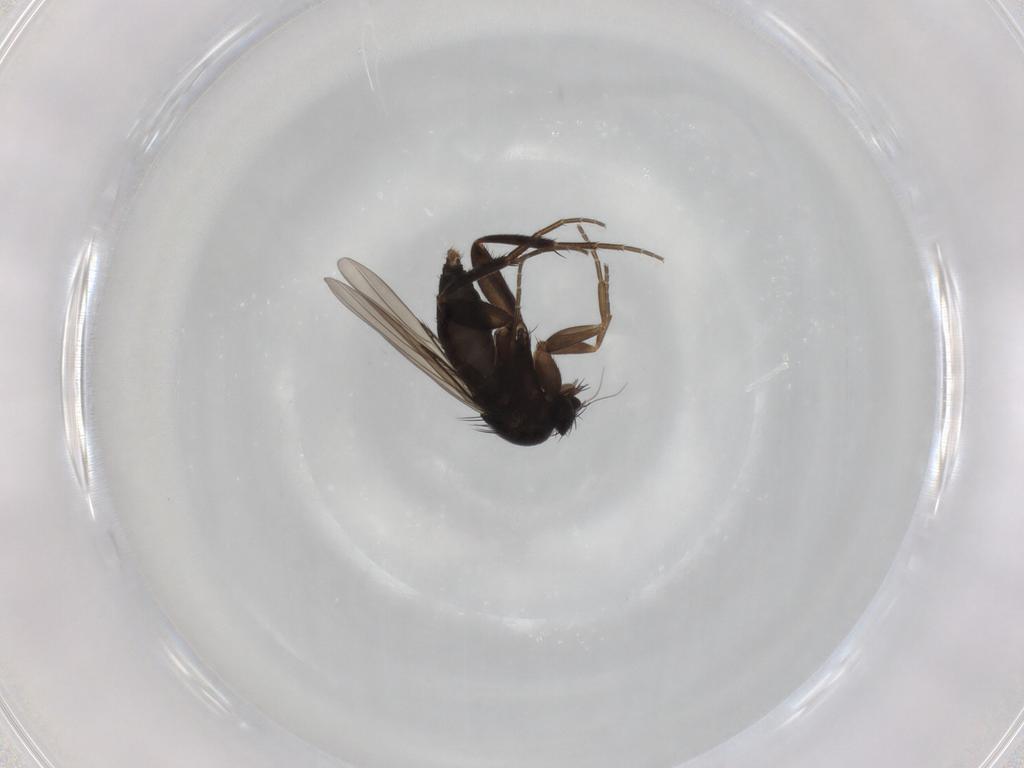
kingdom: Animalia
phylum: Arthropoda
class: Insecta
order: Diptera
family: Phoridae
